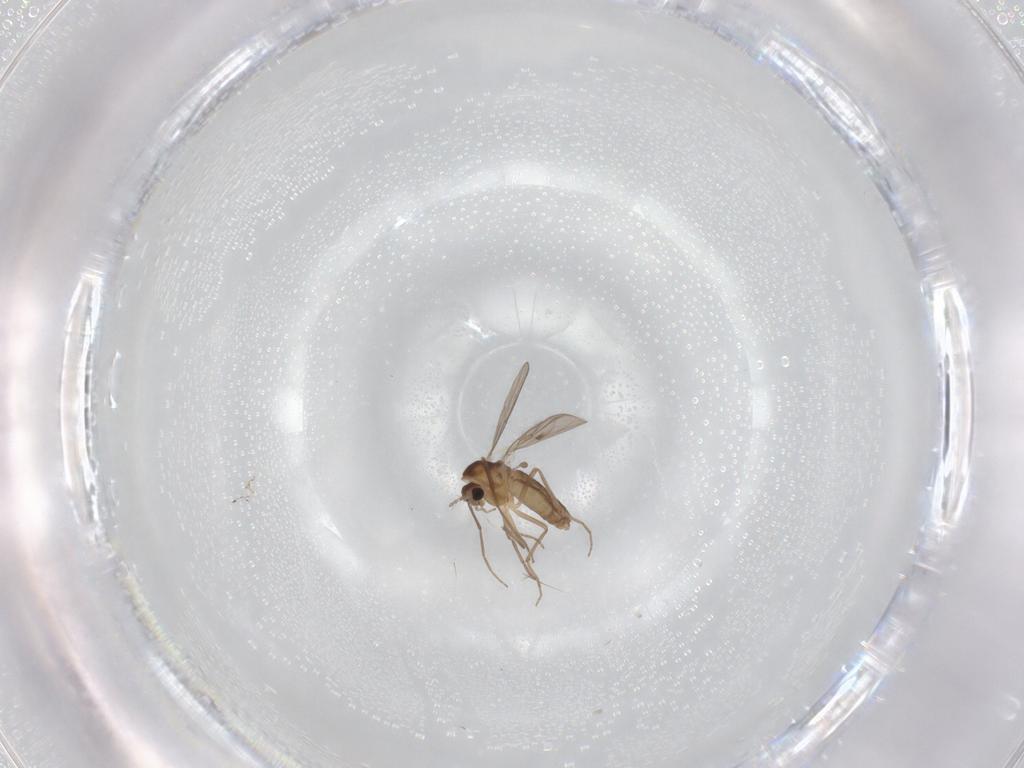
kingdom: Animalia
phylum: Arthropoda
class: Insecta
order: Diptera
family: Chironomidae
